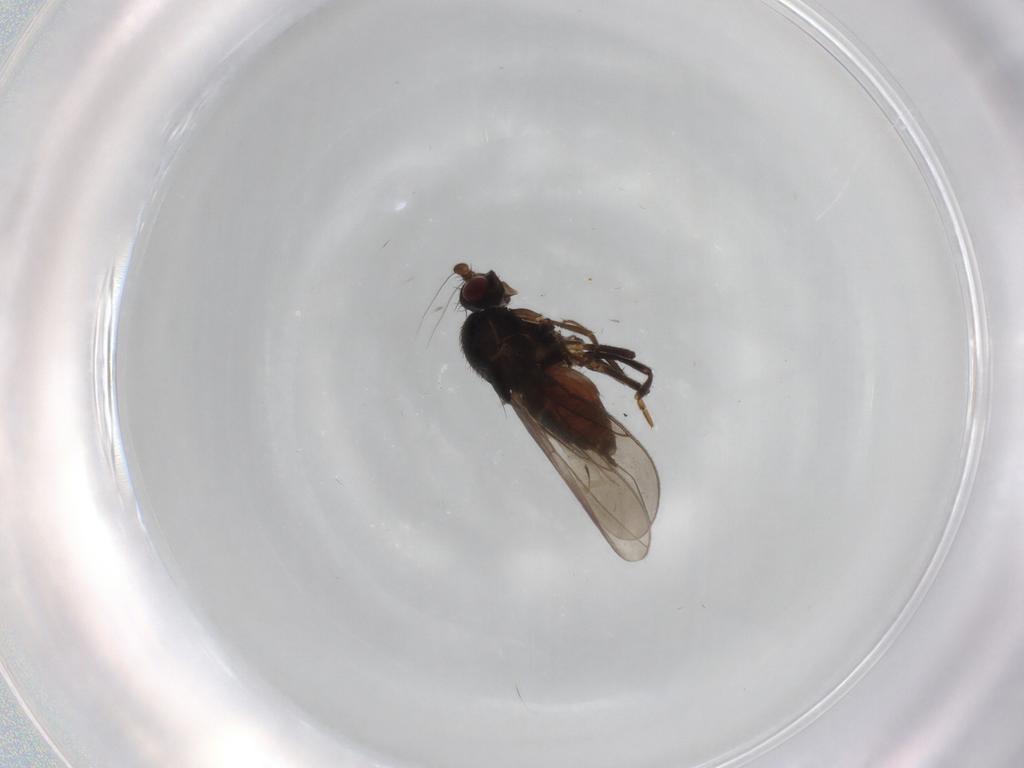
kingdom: Animalia
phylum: Arthropoda
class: Insecta
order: Diptera
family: Sphaeroceridae
